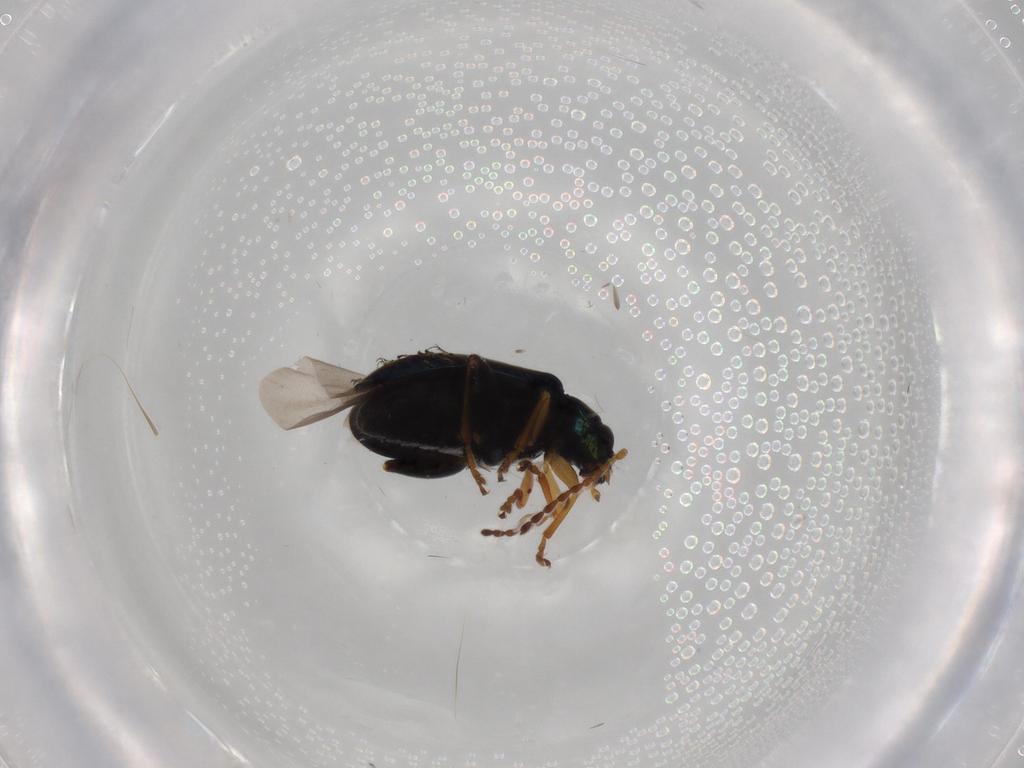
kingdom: Animalia
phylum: Arthropoda
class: Insecta
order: Coleoptera
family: Chrysomelidae
